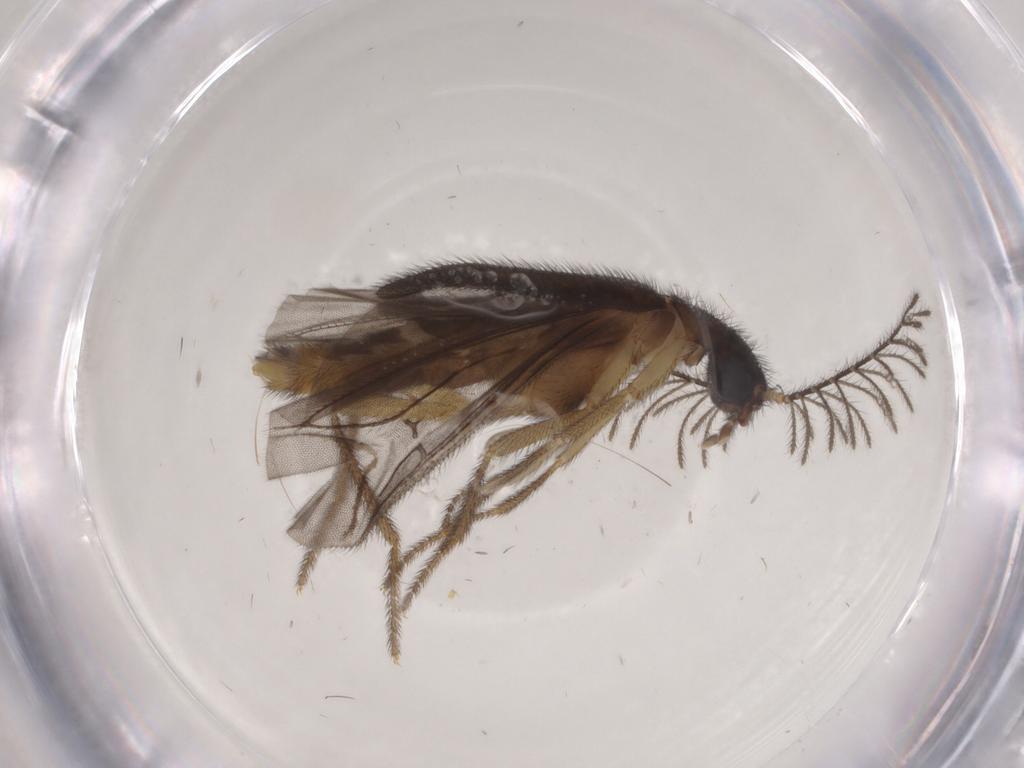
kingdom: Animalia
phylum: Arthropoda
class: Insecta
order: Coleoptera
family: Phengodidae
